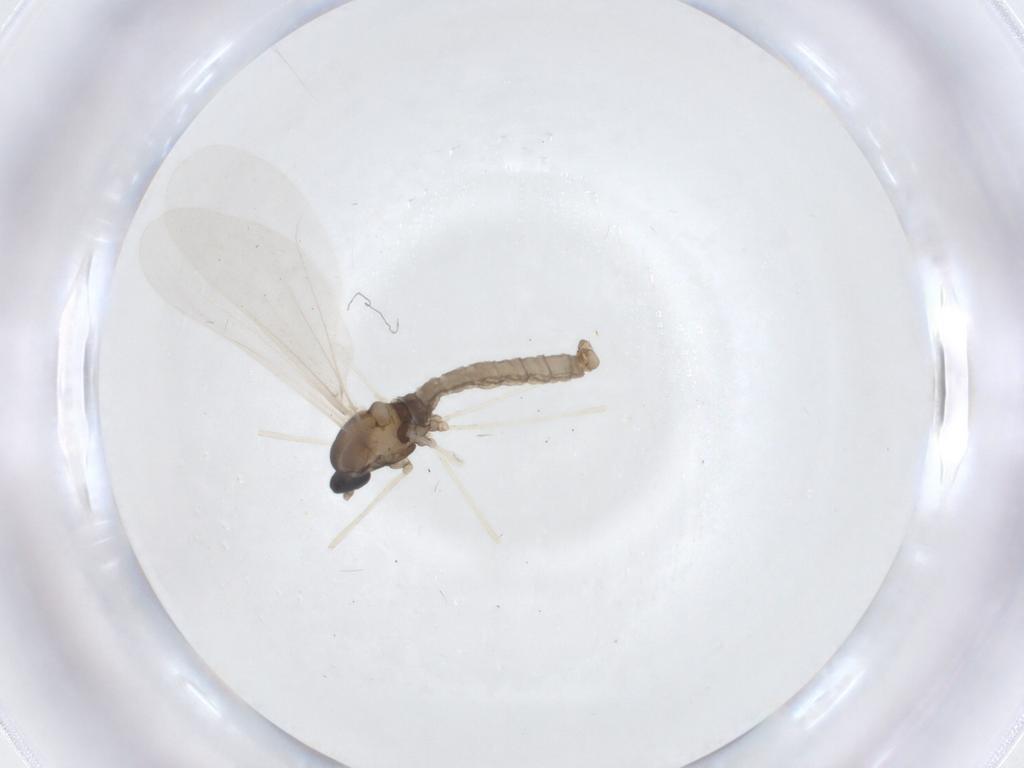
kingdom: Animalia
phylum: Arthropoda
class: Insecta
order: Diptera
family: Cecidomyiidae
